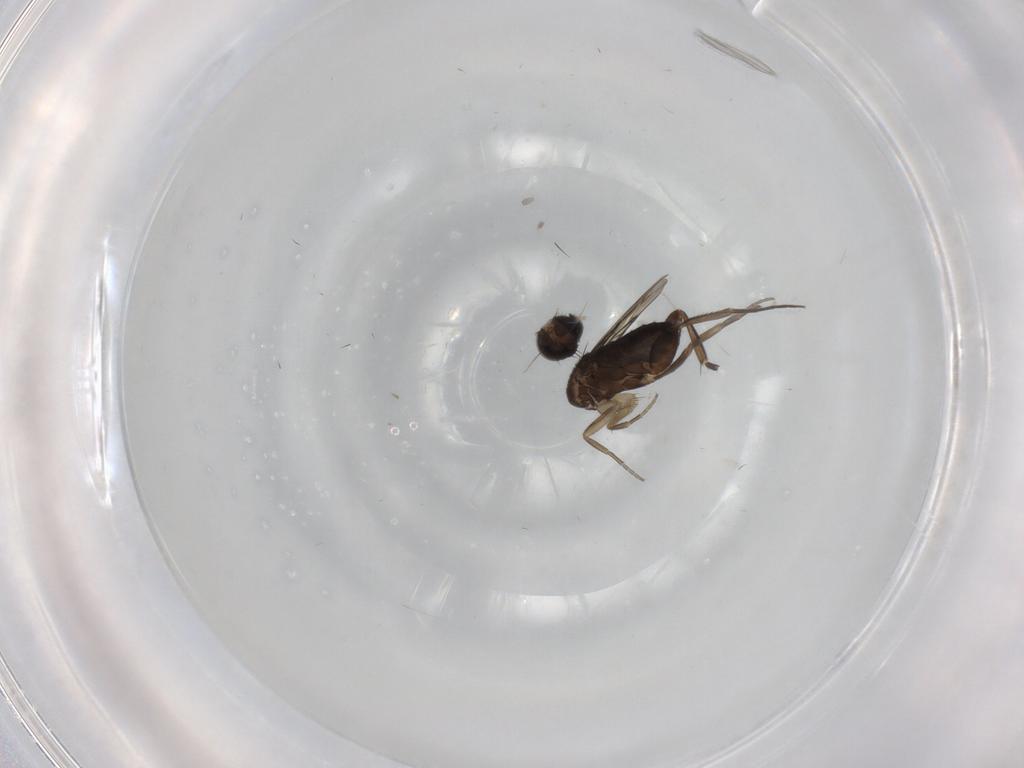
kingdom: Animalia
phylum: Arthropoda
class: Insecta
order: Diptera
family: Phoridae
